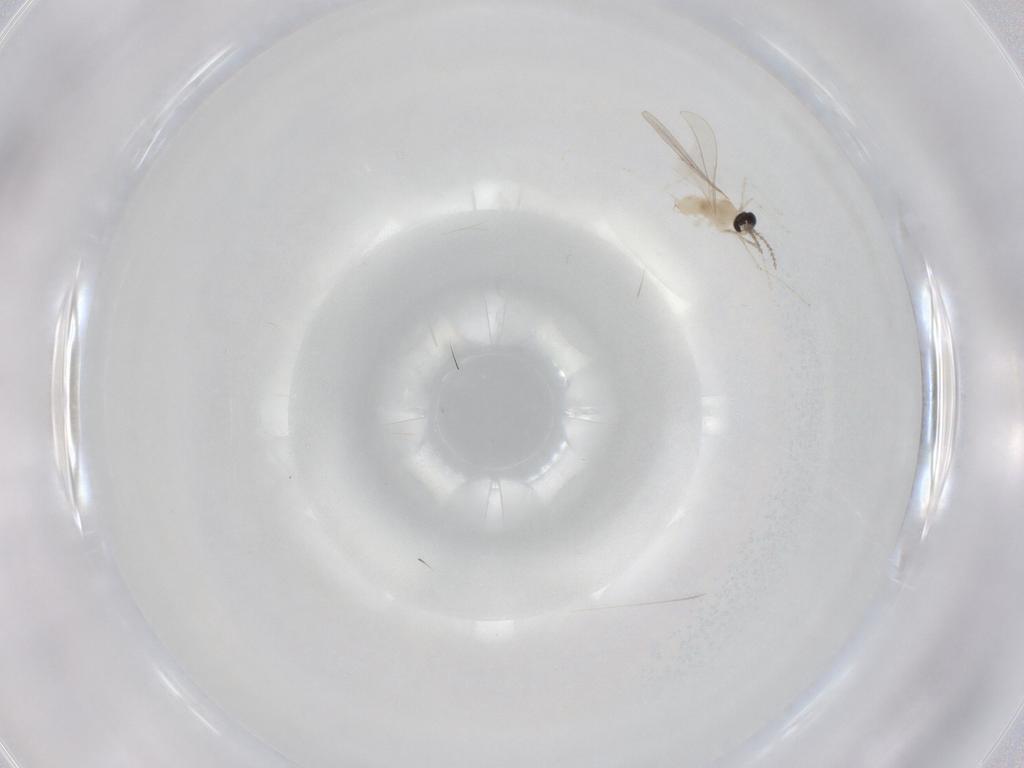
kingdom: Animalia
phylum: Arthropoda
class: Insecta
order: Diptera
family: Cecidomyiidae
